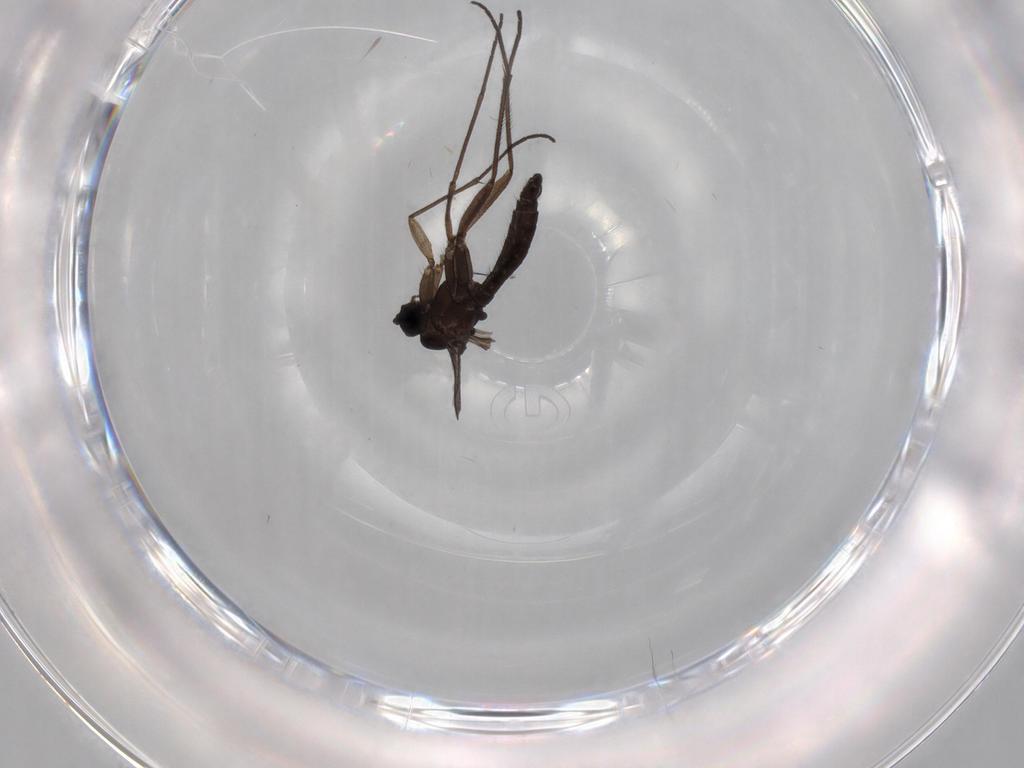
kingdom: Animalia
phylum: Arthropoda
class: Insecta
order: Diptera
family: Sciaridae
